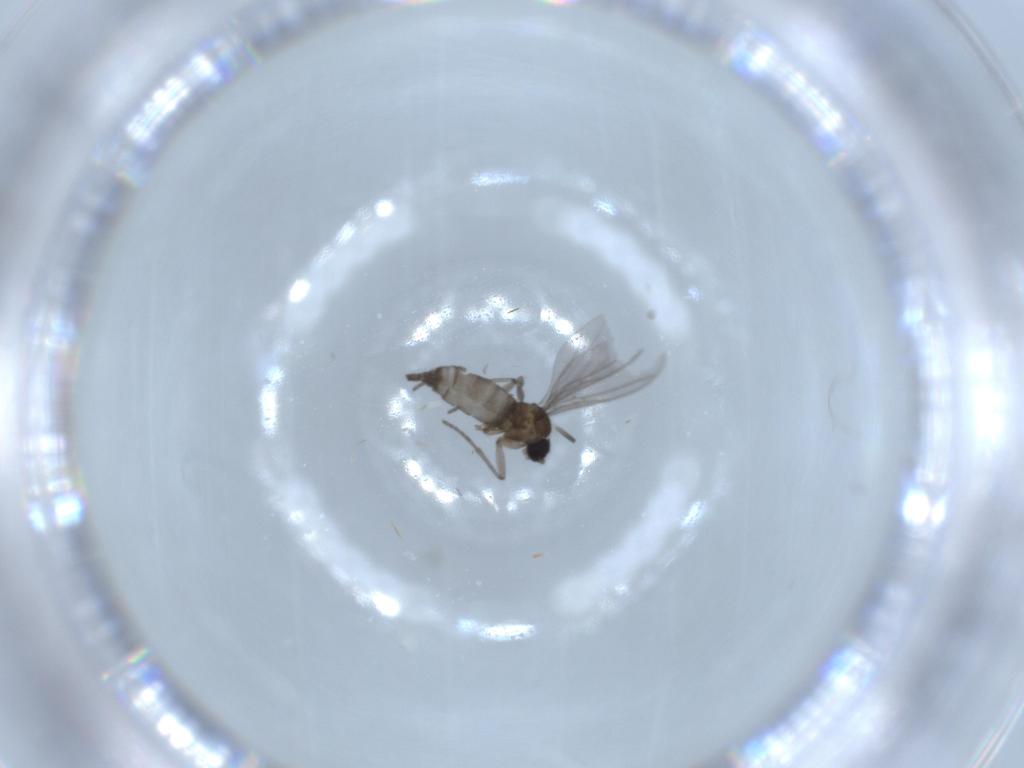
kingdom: Animalia
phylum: Arthropoda
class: Insecta
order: Diptera
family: Sciaridae
